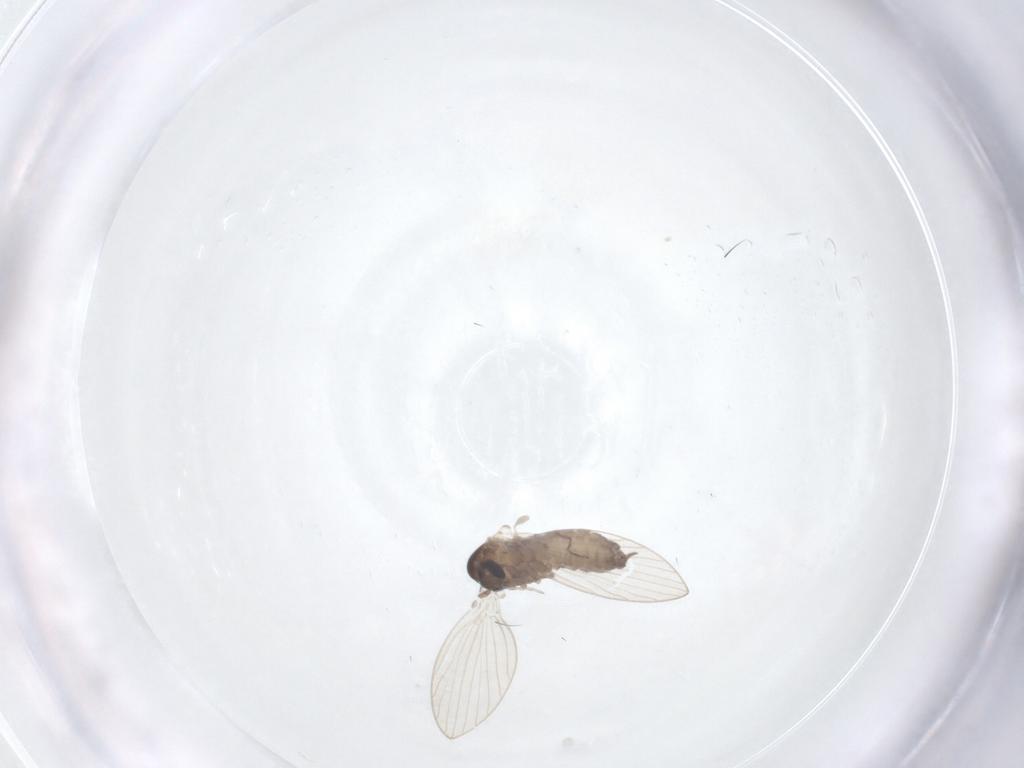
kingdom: Animalia
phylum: Arthropoda
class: Insecta
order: Diptera
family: Psychodidae
